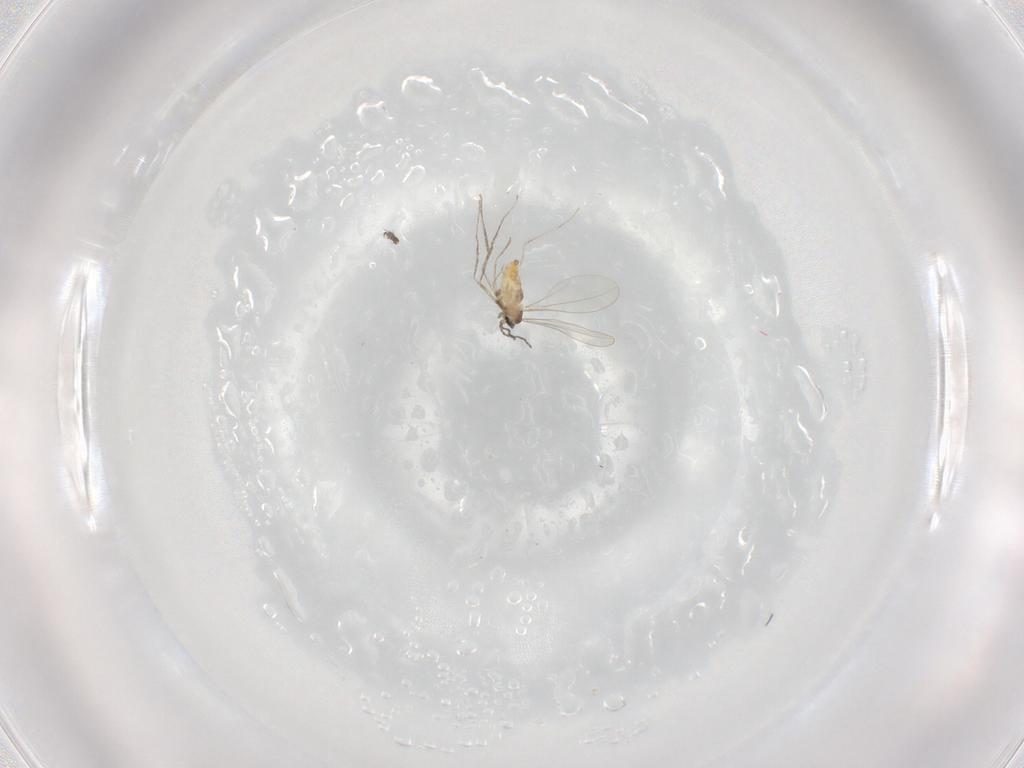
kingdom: Animalia
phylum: Arthropoda
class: Insecta
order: Diptera
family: Cecidomyiidae
